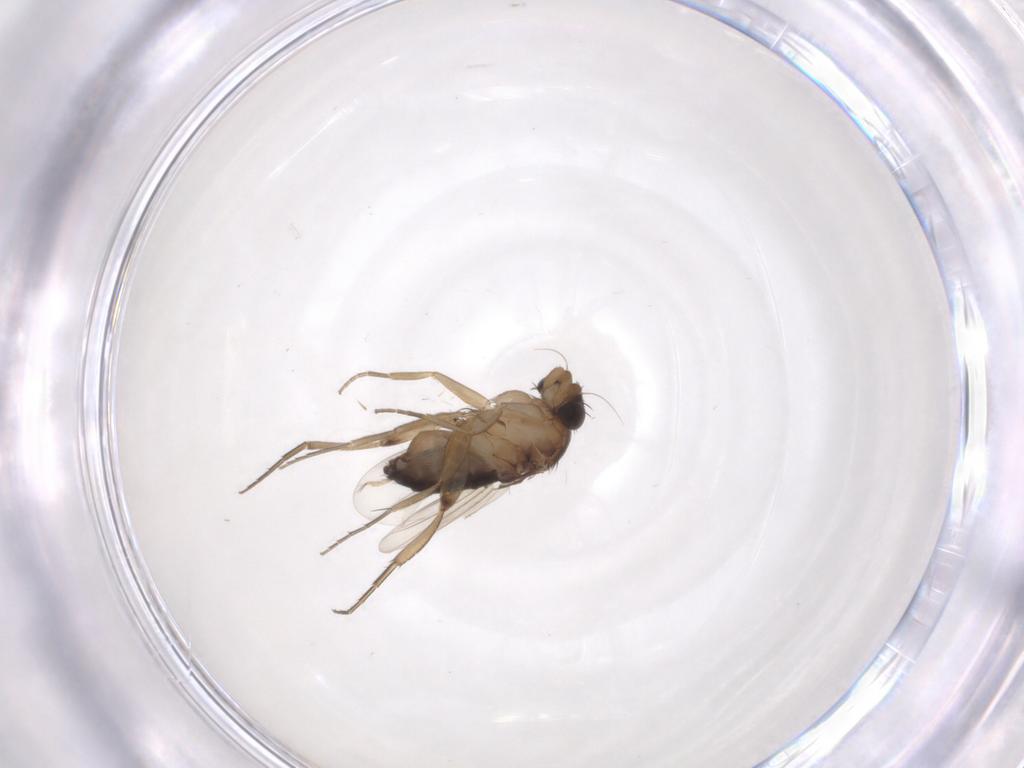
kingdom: Animalia
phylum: Arthropoda
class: Insecta
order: Diptera
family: Phoridae
